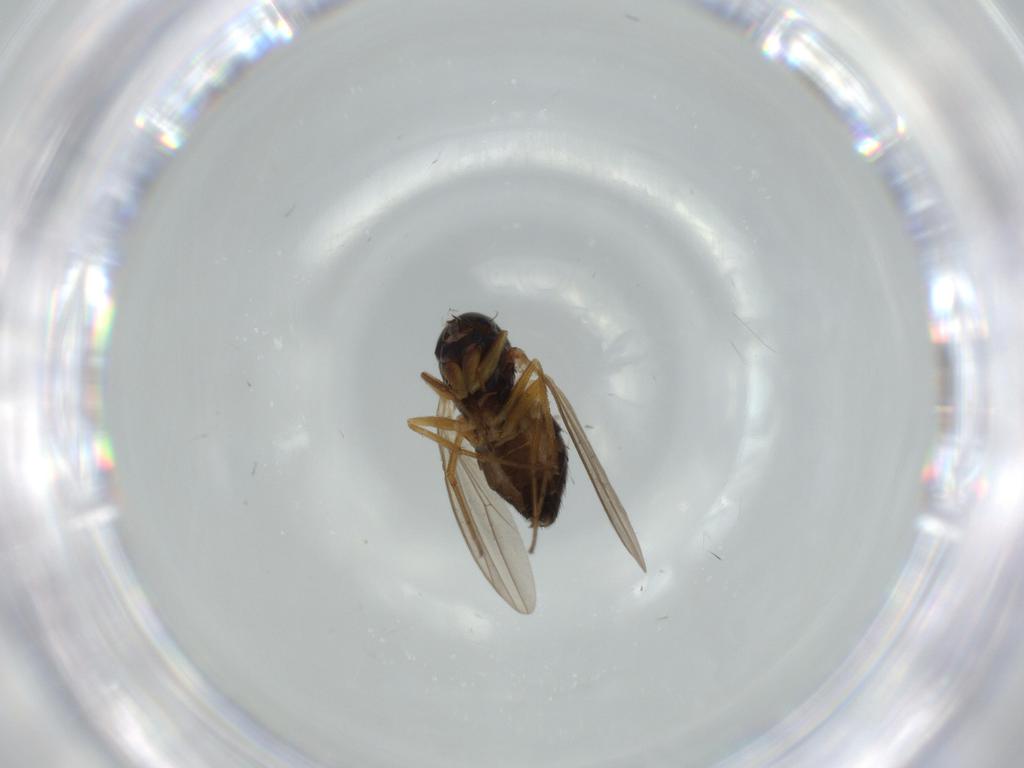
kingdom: Animalia
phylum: Arthropoda
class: Insecta
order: Diptera
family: Dolichopodidae
